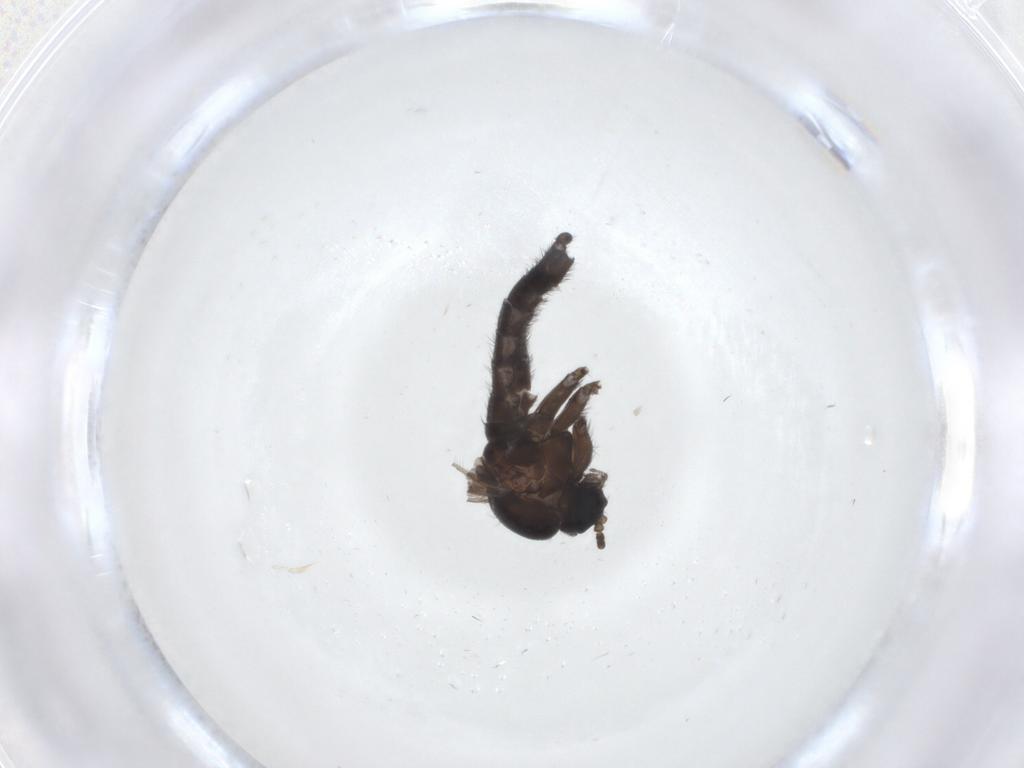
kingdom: Animalia
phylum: Arthropoda
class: Insecta
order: Diptera
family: Sciaridae
